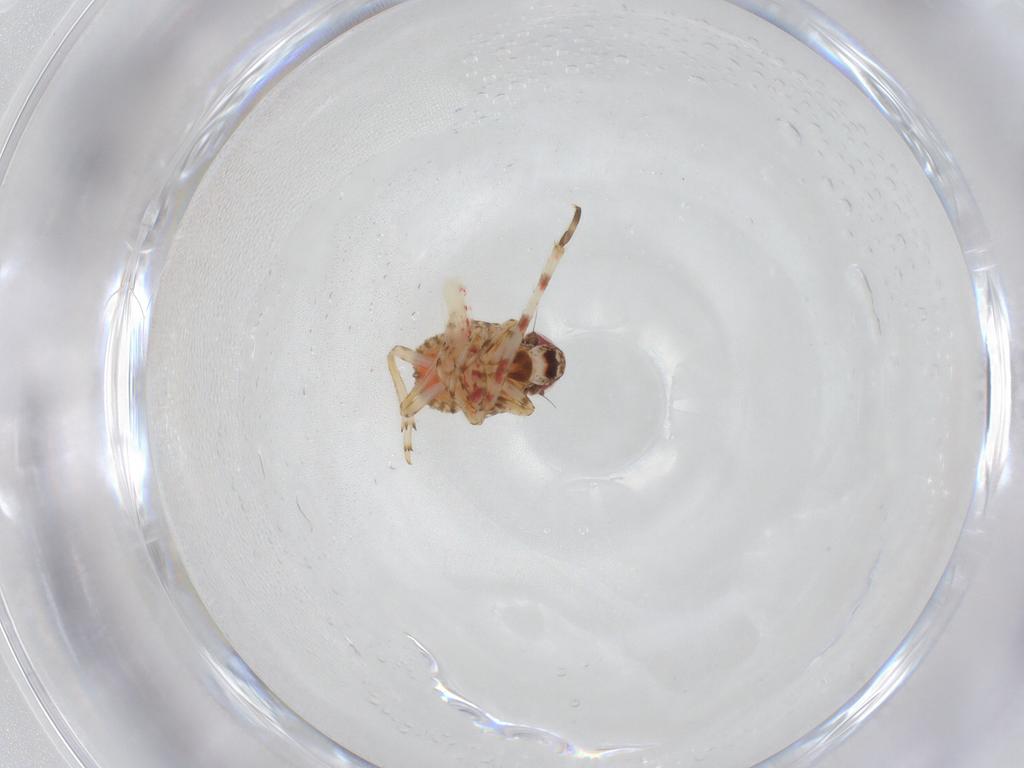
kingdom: Animalia
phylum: Arthropoda
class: Insecta
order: Hemiptera
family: Issidae
